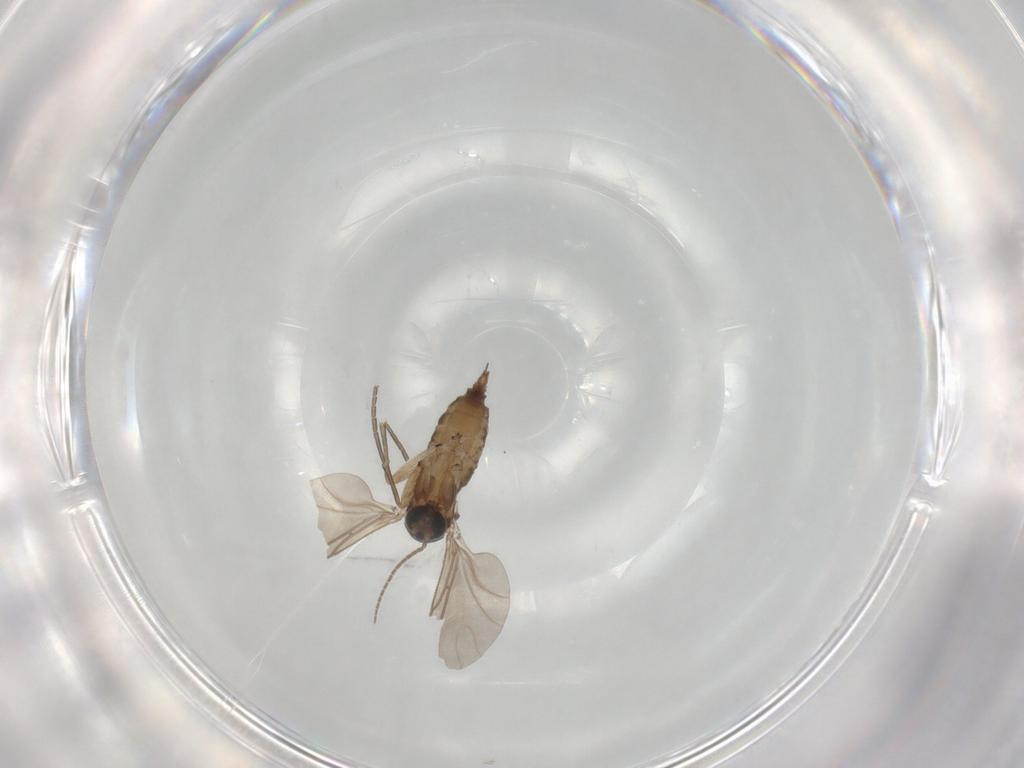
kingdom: Animalia
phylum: Arthropoda
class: Insecta
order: Diptera
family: Sciaridae
